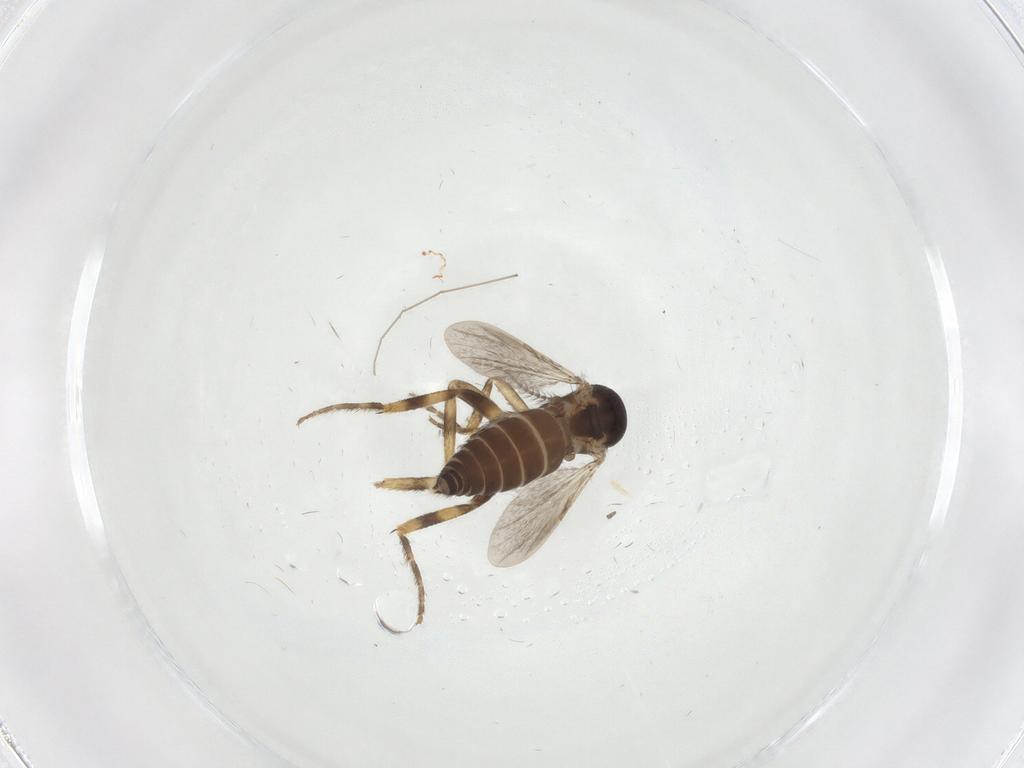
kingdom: Animalia
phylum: Arthropoda
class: Insecta
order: Diptera
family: Ceratopogonidae
